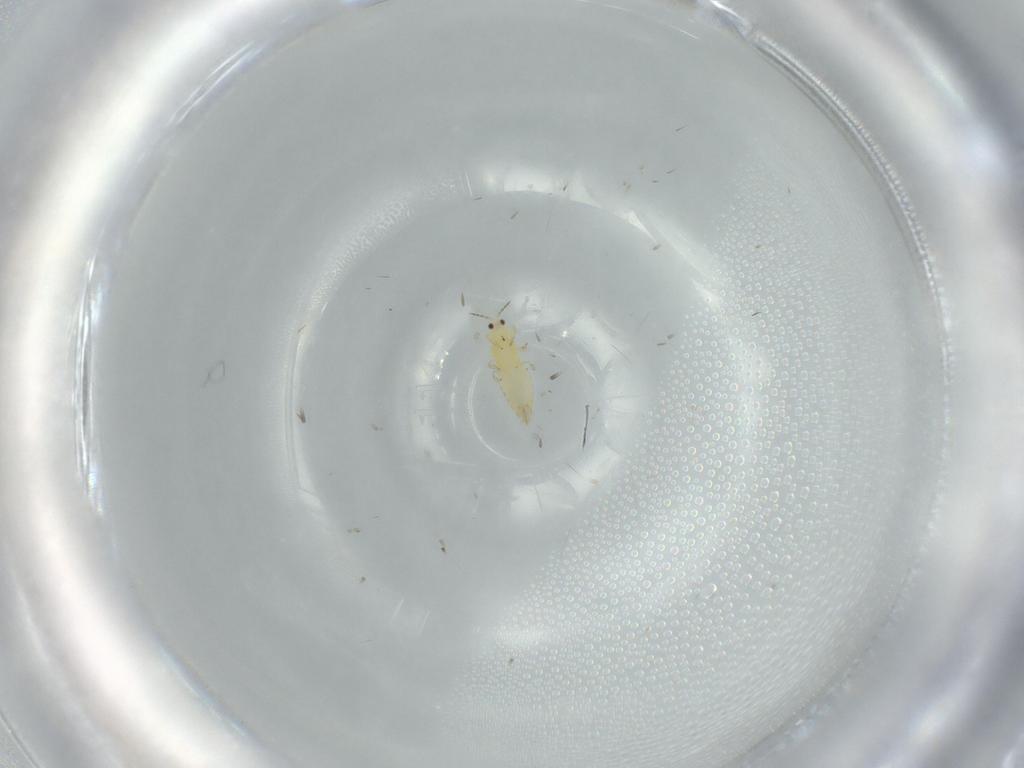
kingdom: Animalia
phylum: Arthropoda
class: Insecta
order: Thysanoptera
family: Thripidae
